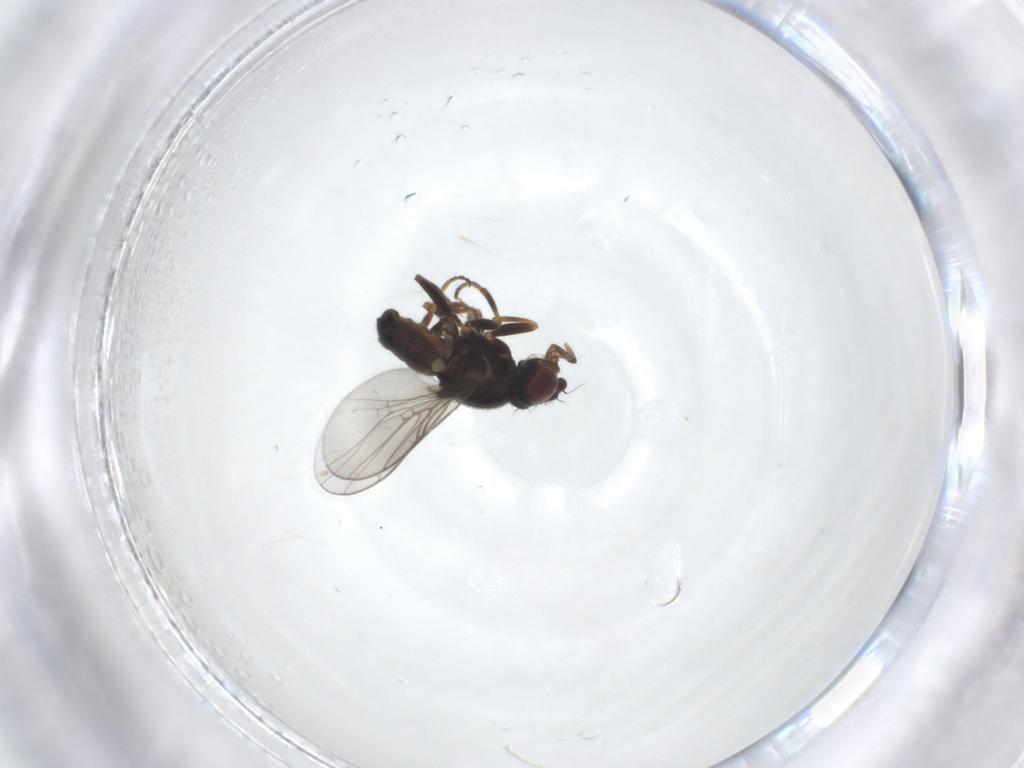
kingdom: Animalia
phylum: Arthropoda
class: Insecta
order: Diptera
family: Chloropidae
